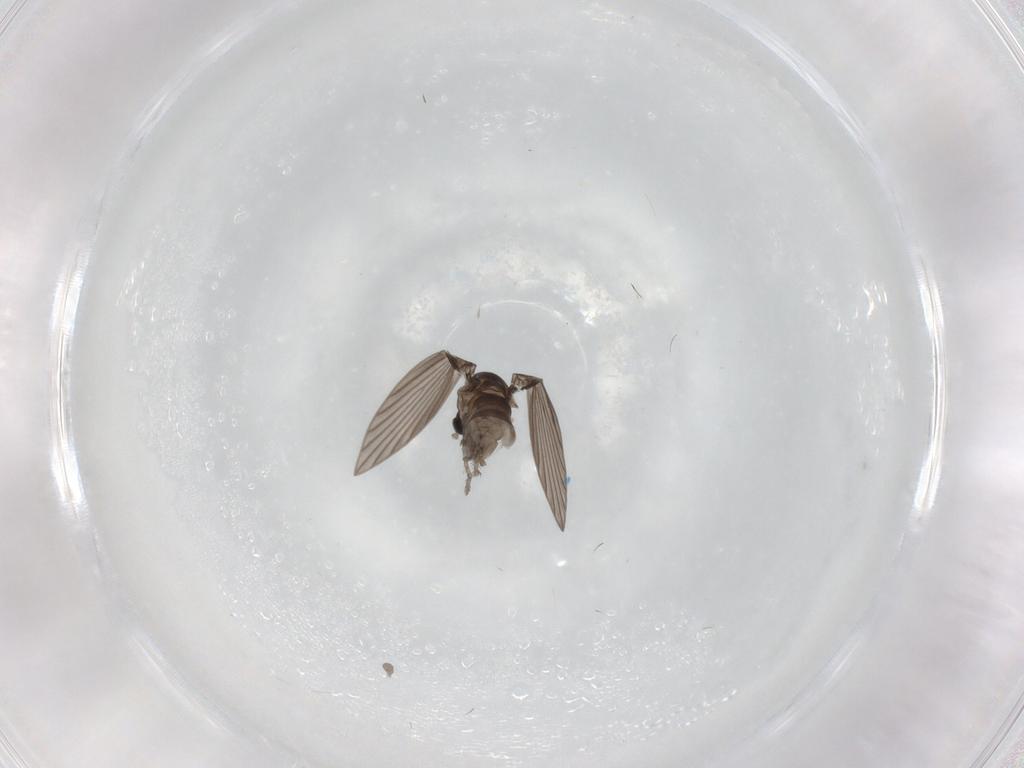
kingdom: Animalia
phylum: Arthropoda
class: Insecta
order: Diptera
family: Psychodidae
